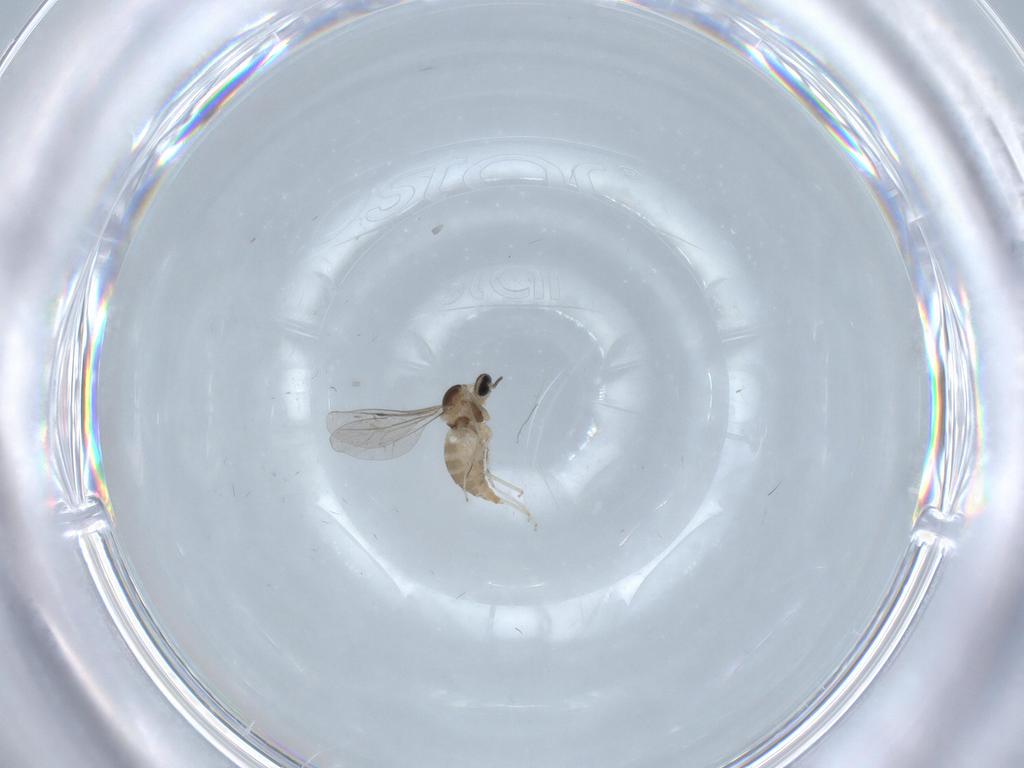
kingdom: Animalia
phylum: Arthropoda
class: Insecta
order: Diptera
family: Cecidomyiidae
